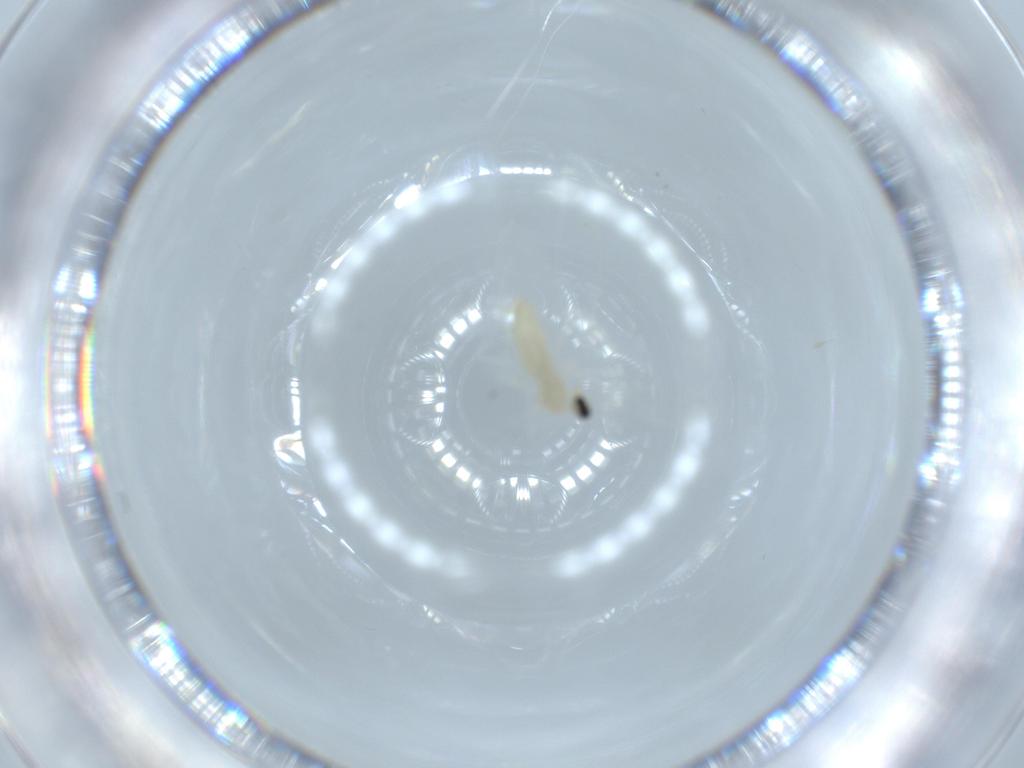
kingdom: Animalia
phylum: Arthropoda
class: Insecta
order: Diptera
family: Cecidomyiidae
